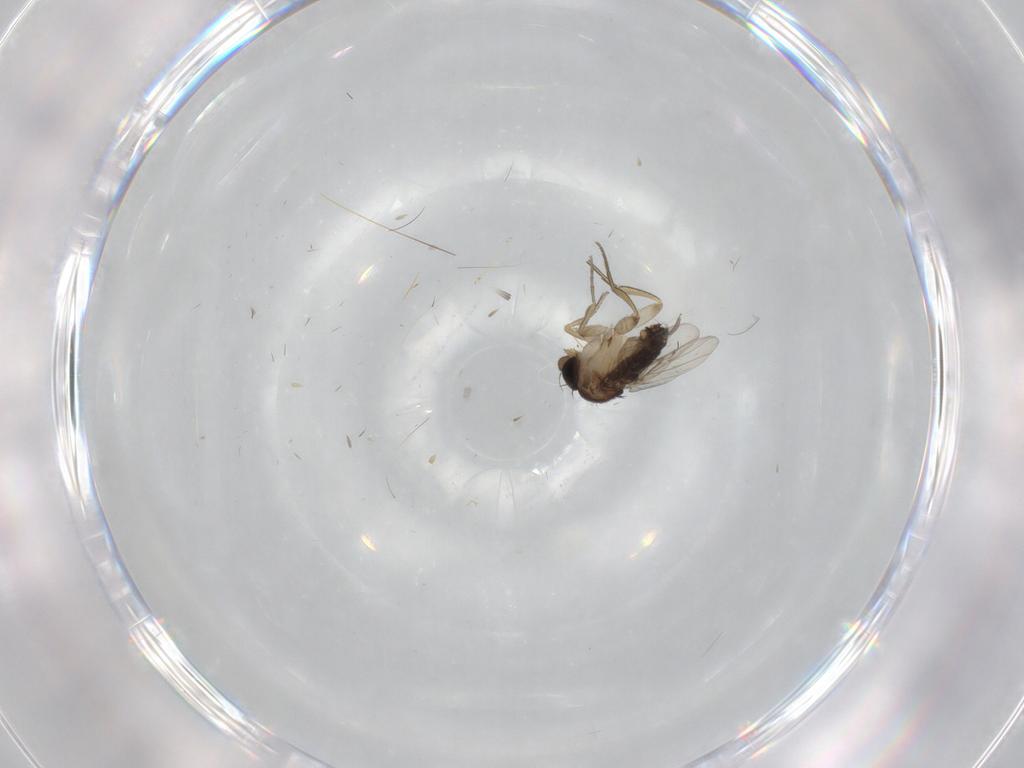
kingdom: Animalia
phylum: Arthropoda
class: Insecta
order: Diptera
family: Cecidomyiidae
